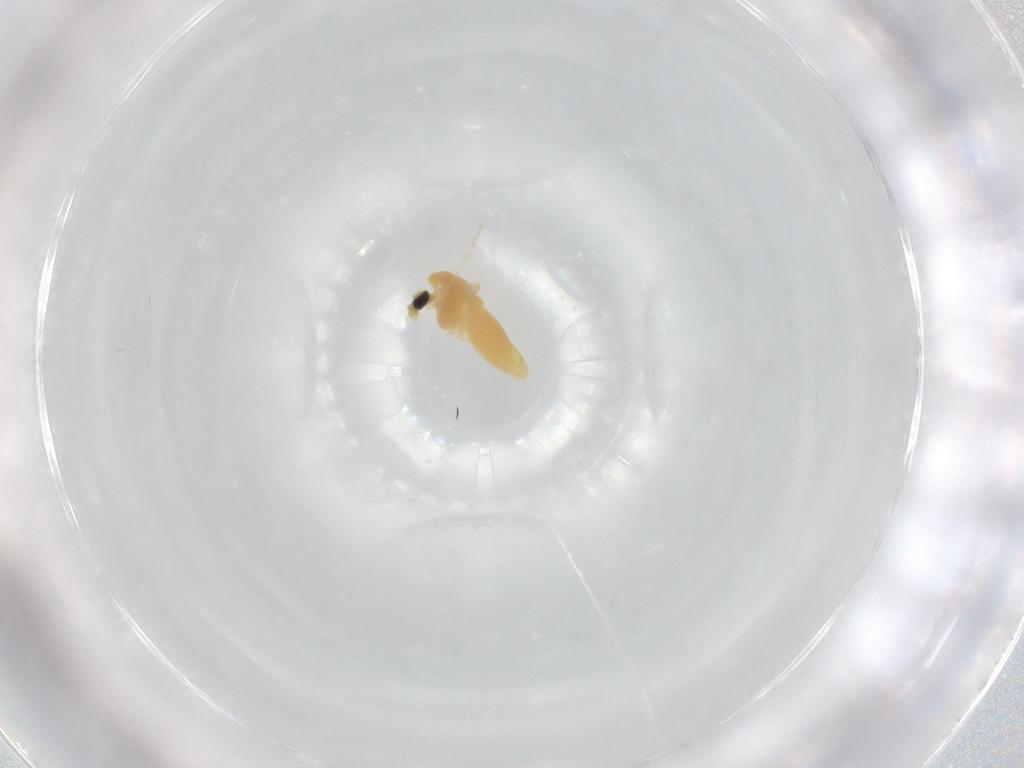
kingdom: Animalia
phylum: Arthropoda
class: Insecta
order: Diptera
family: Chironomidae
